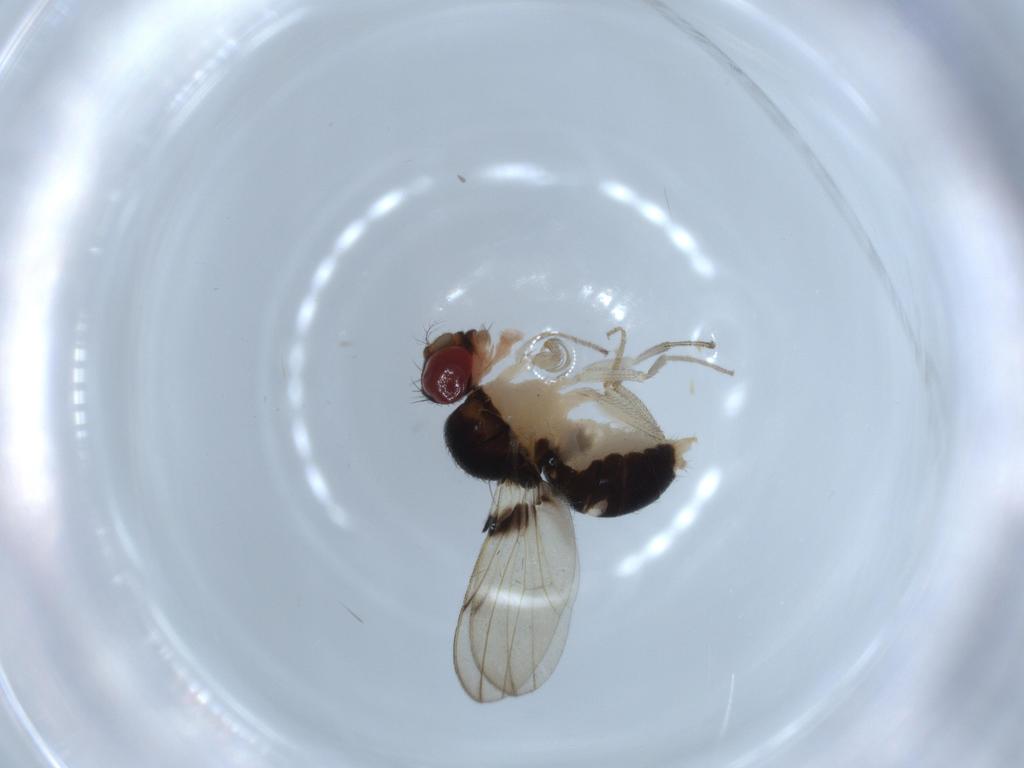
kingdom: Animalia
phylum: Arthropoda
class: Insecta
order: Diptera
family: Drosophilidae
